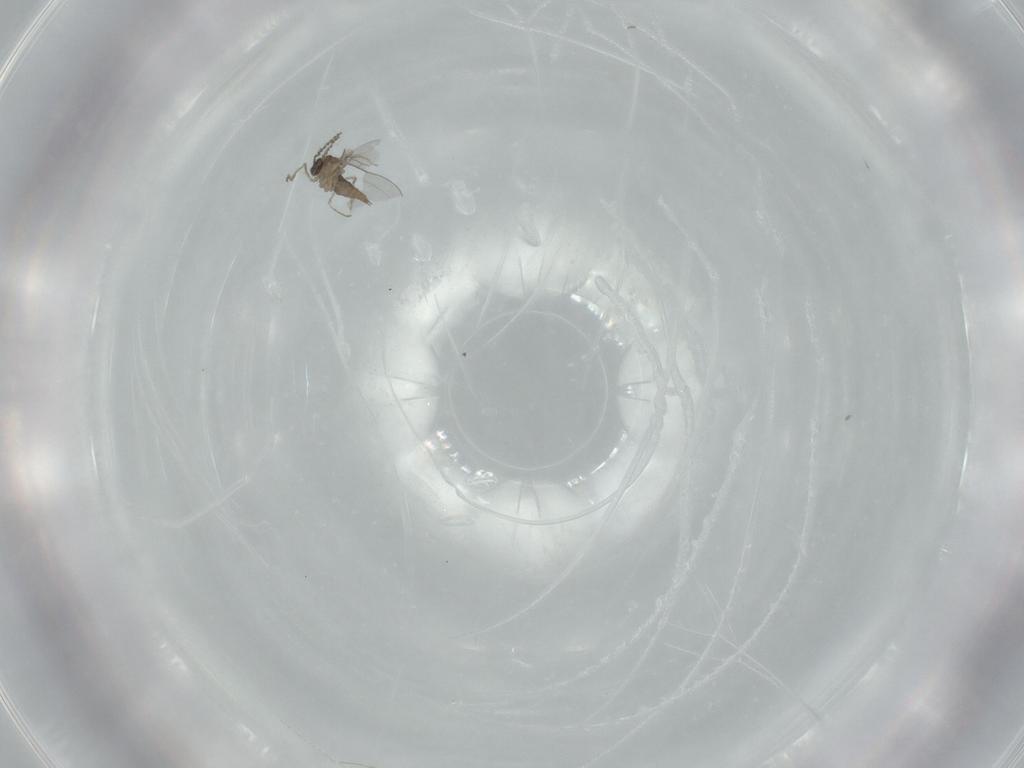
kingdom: Animalia
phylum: Arthropoda
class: Insecta
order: Diptera
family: Cecidomyiidae
